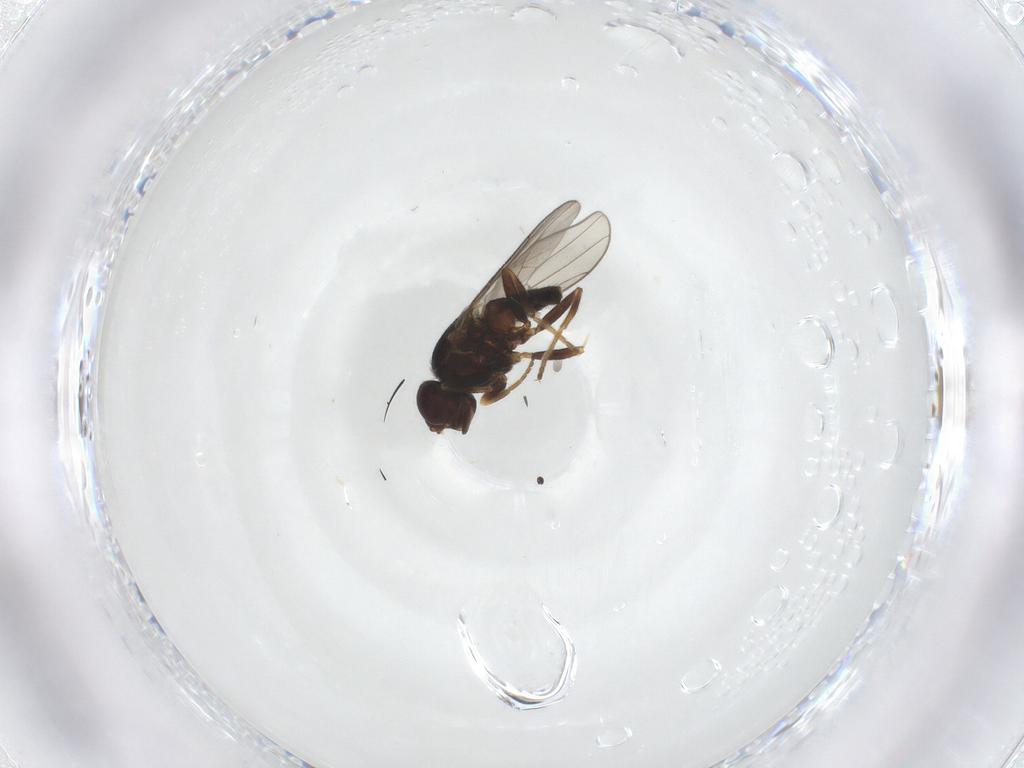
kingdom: Animalia
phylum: Arthropoda
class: Insecta
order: Diptera
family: Chloropidae
